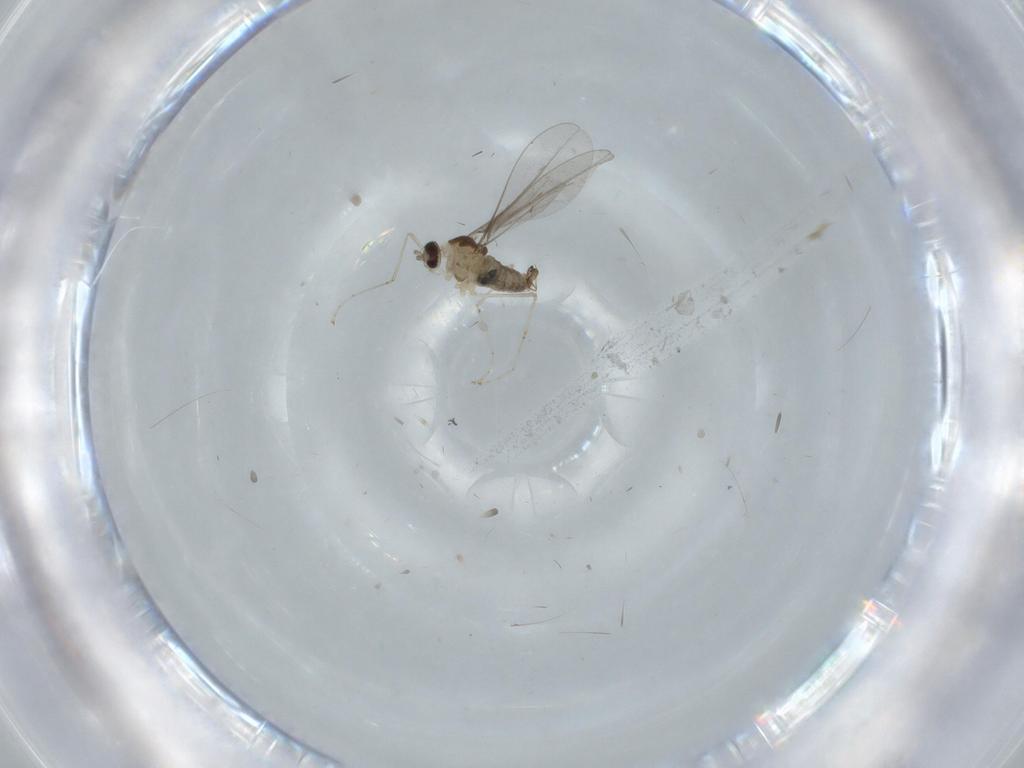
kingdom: Animalia
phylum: Arthropoda
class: Insecta
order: Diptera
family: Cecidomyiidae
